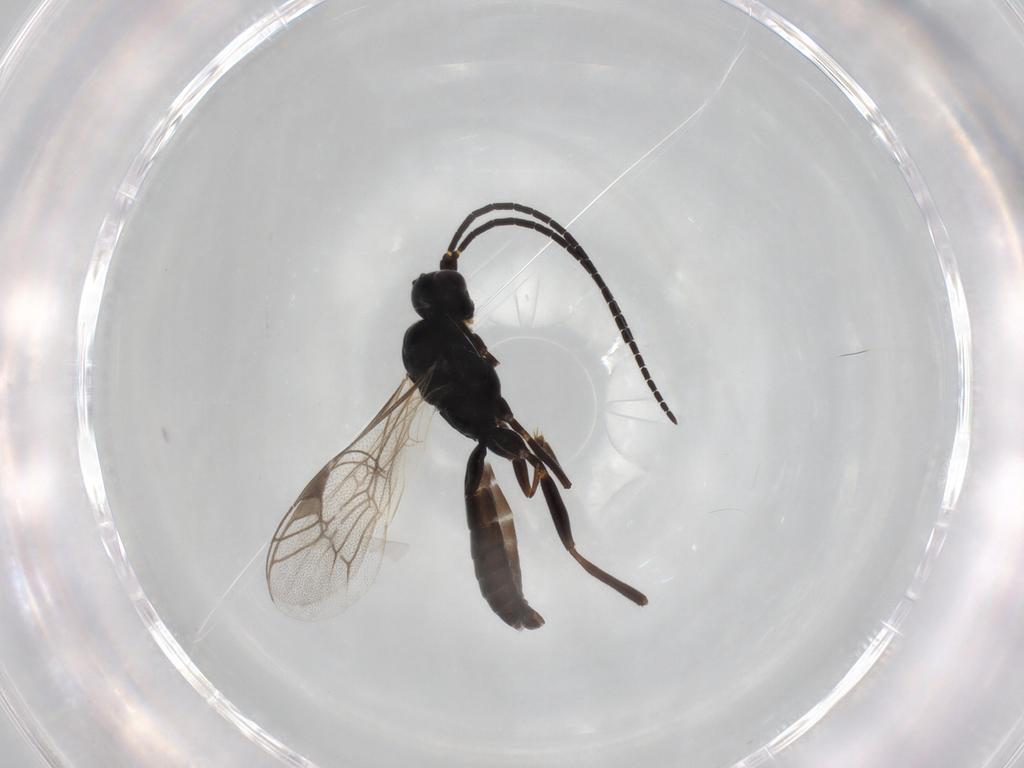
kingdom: Animalia
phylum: Arthropoda
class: Insecta
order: Hymenoptera
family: Ichneumonidae
